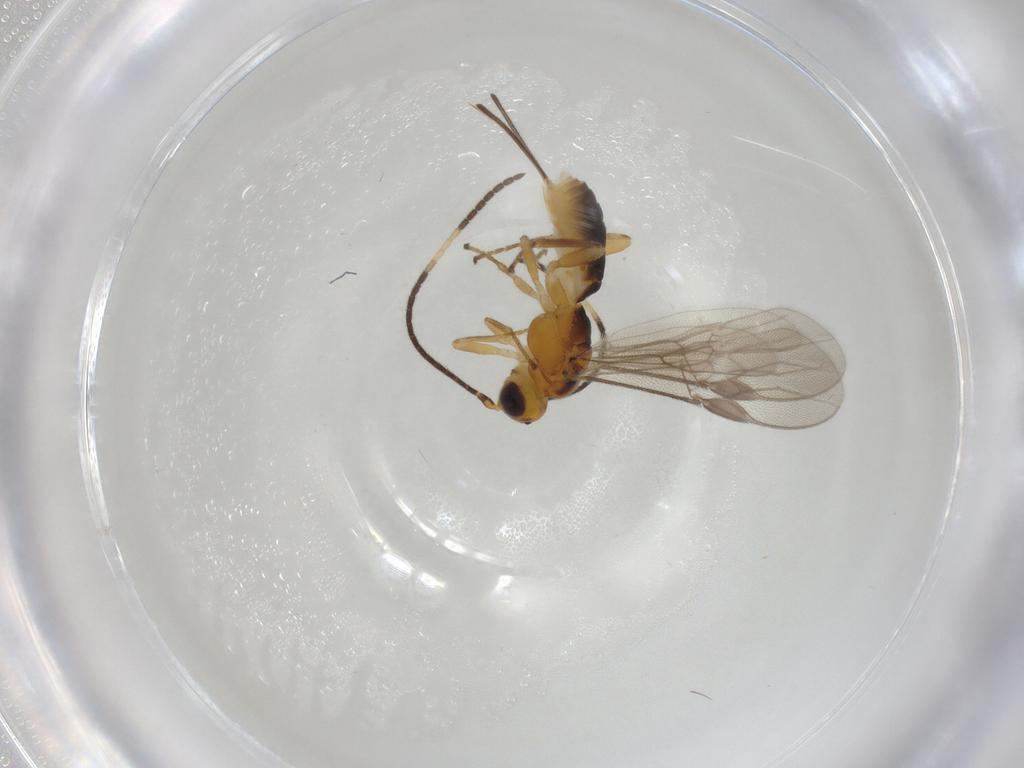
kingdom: Animalia
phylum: Arthropoda
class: Insecta
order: Hymenoptera
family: Braconidae
